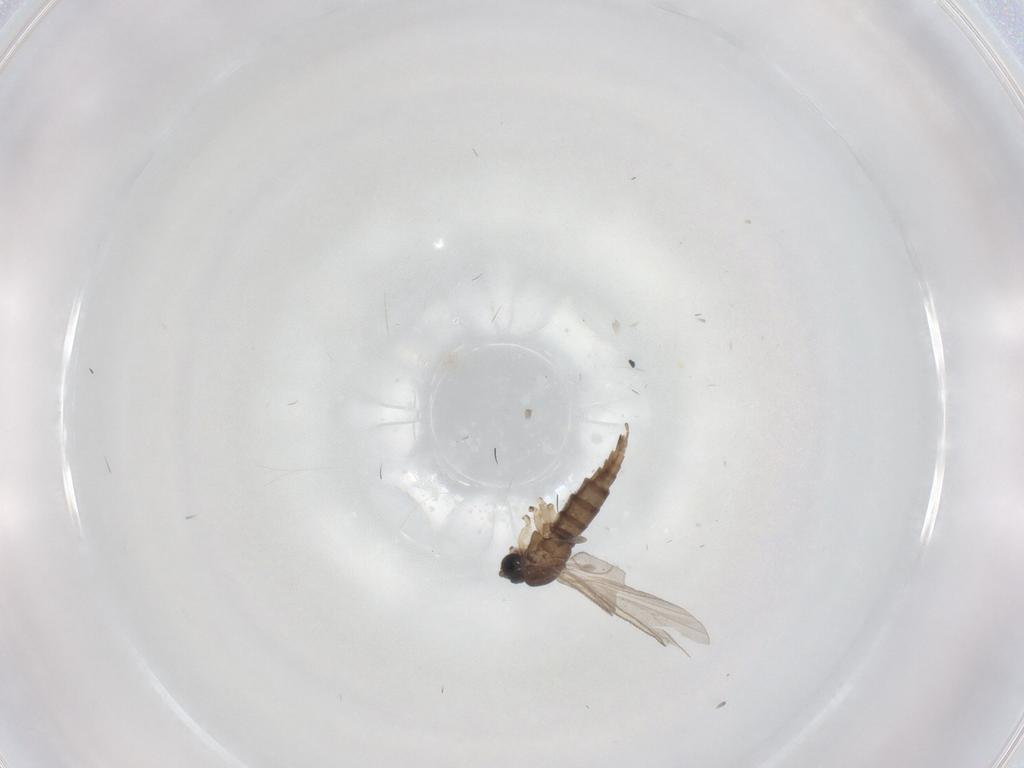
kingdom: Animalia
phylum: Arthropoda
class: Insecta
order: Diptera
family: Sciaridae
